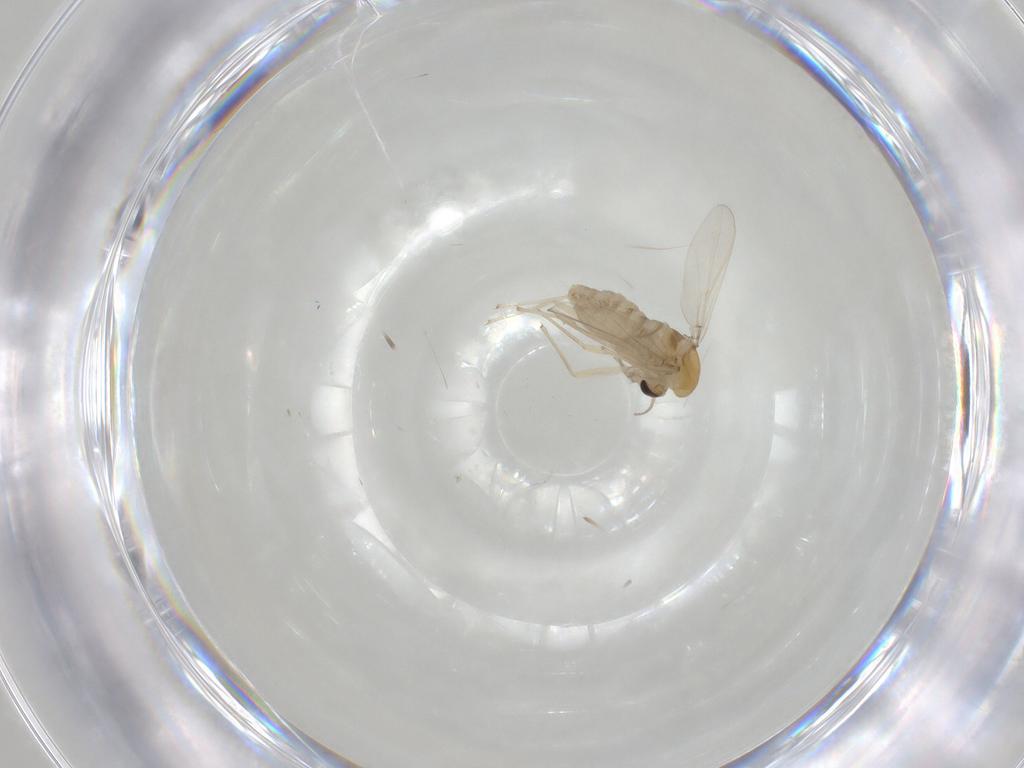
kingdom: Animalia
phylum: Arthropoda
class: Insecta
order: Diptera
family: Chironomidae
